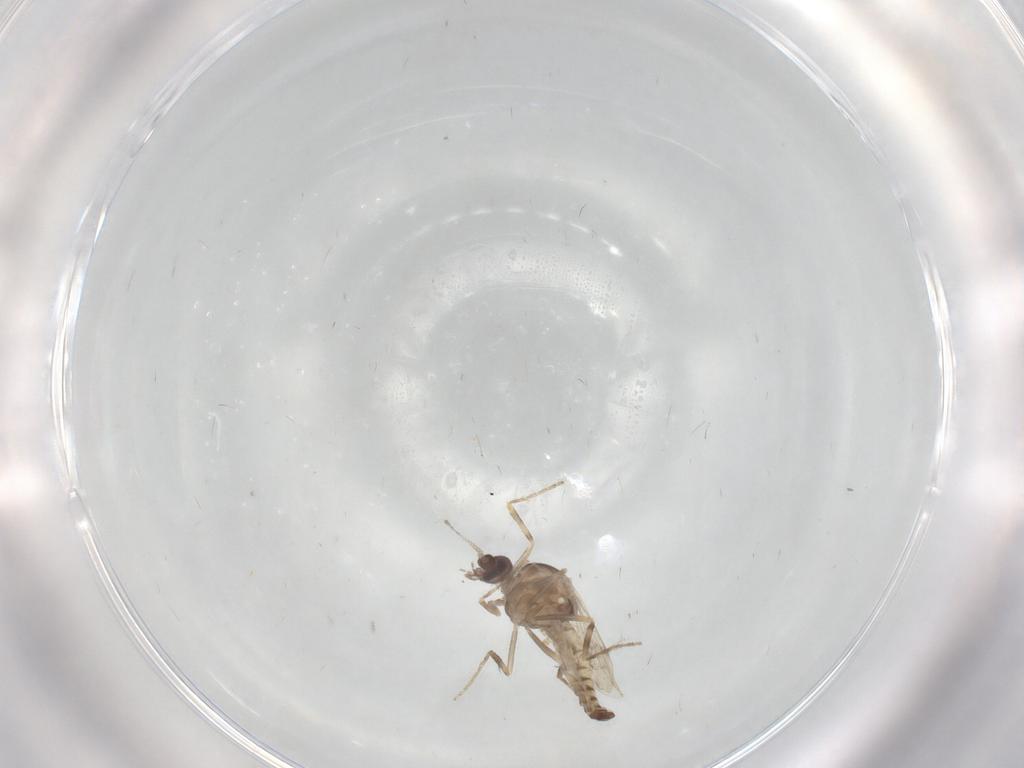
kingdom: Animalia
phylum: Arthropoda
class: Insecta
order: Diptera
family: Ceratopogonidae
